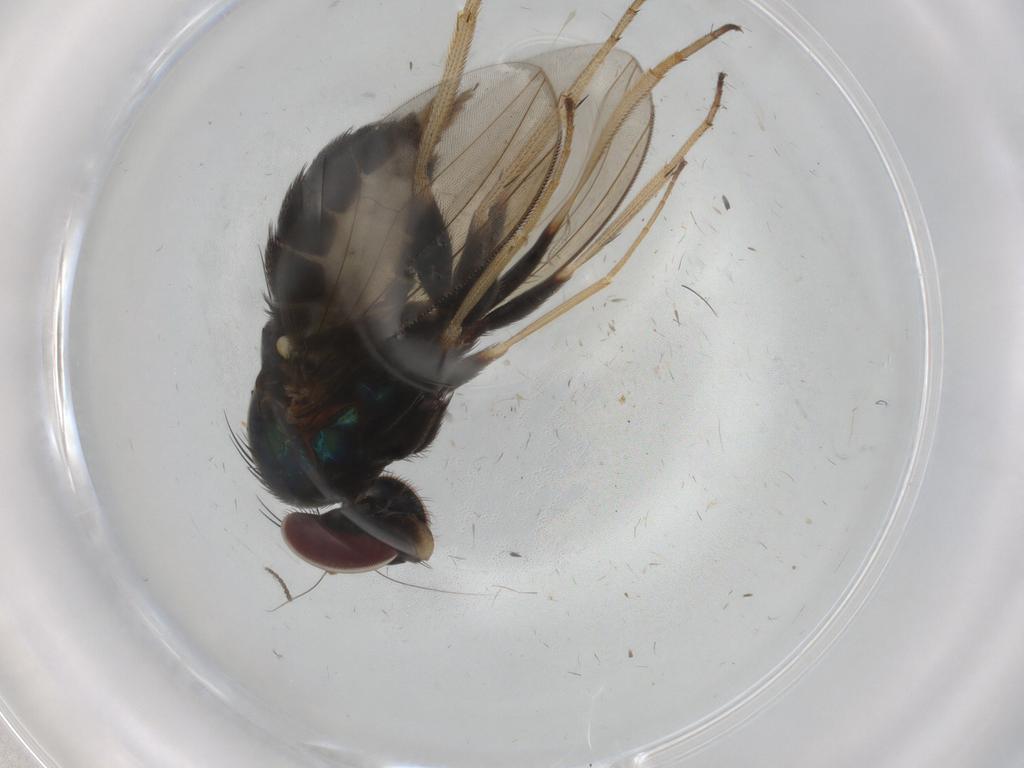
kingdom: Animalia
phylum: Arthropoda
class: Insecta
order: Diptera
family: Dolichopodidae
